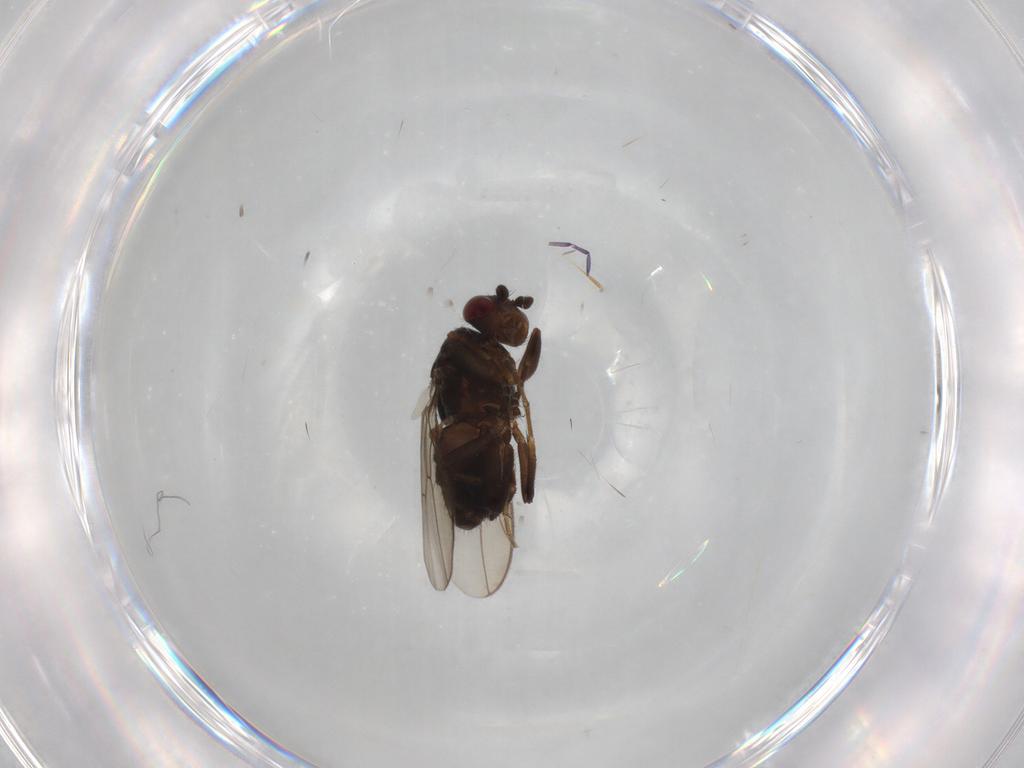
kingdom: Animalia
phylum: Arthropoda
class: Insecta
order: Diptera
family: Sphaeroceridae
